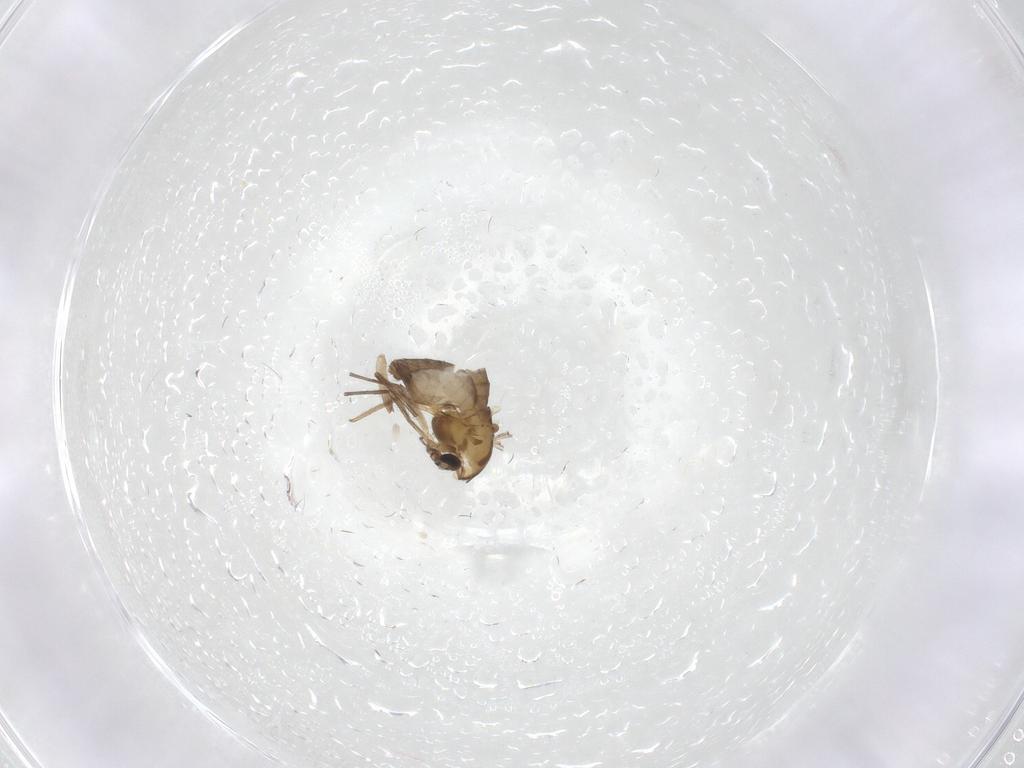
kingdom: Animalia
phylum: Arthropoda
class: Insecta
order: Diptera
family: Chironomidae
